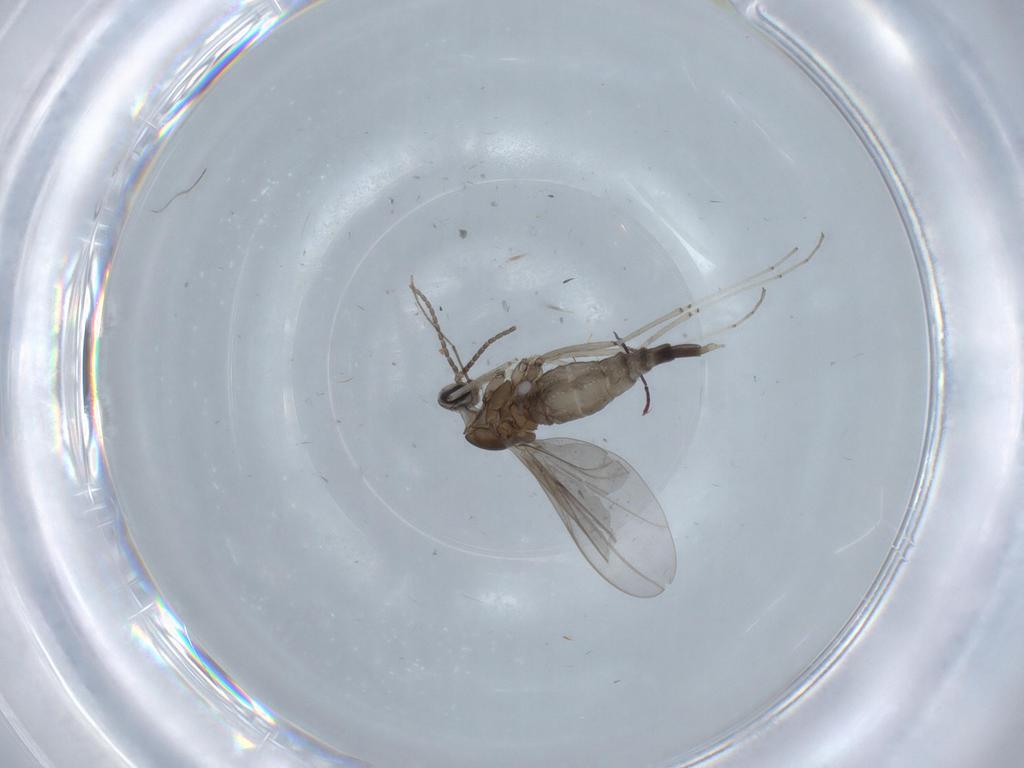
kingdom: Animalia
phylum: Arthropoda
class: Insecta
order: Diptera
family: Cecidomyiidae
